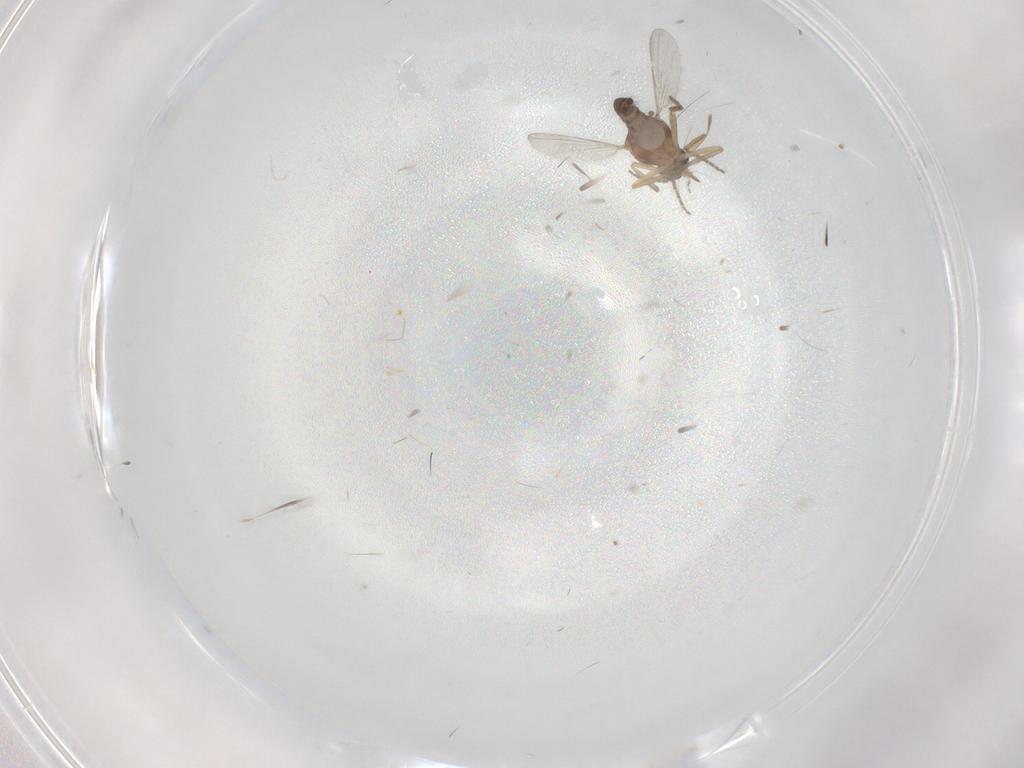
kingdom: Animalia
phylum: Arthropoda
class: Insecta
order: Diptera
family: Ceratopogonidae
